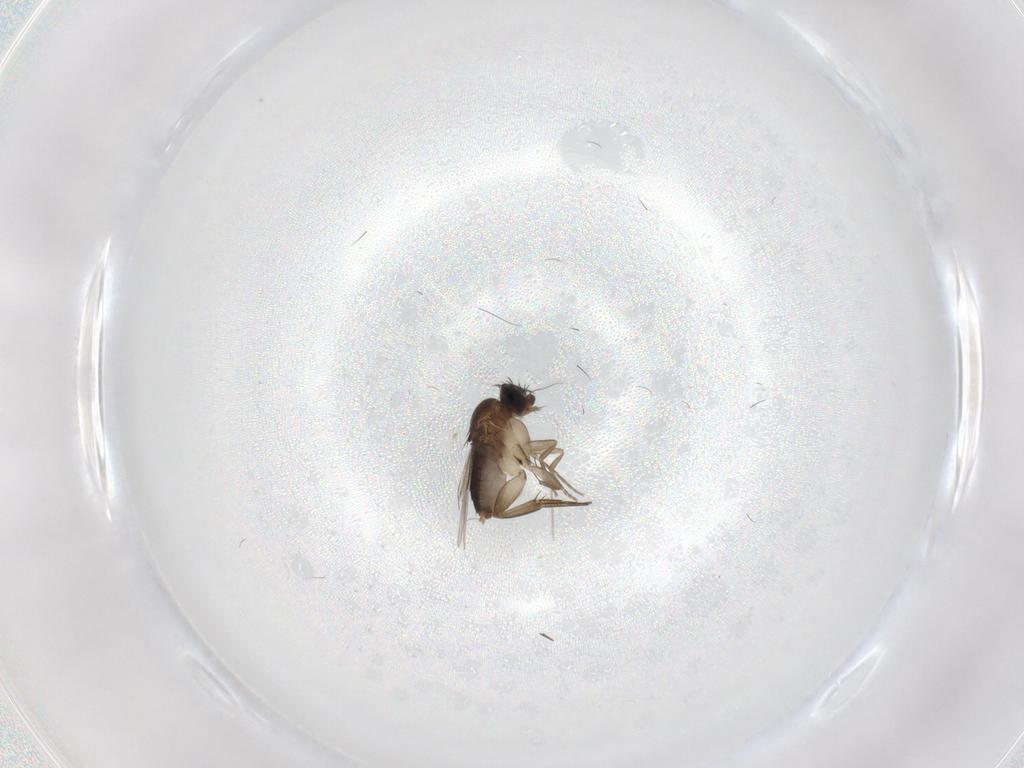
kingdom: Animalia
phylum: Arthropoda
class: Insecta
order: Diptera
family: Phoridae
